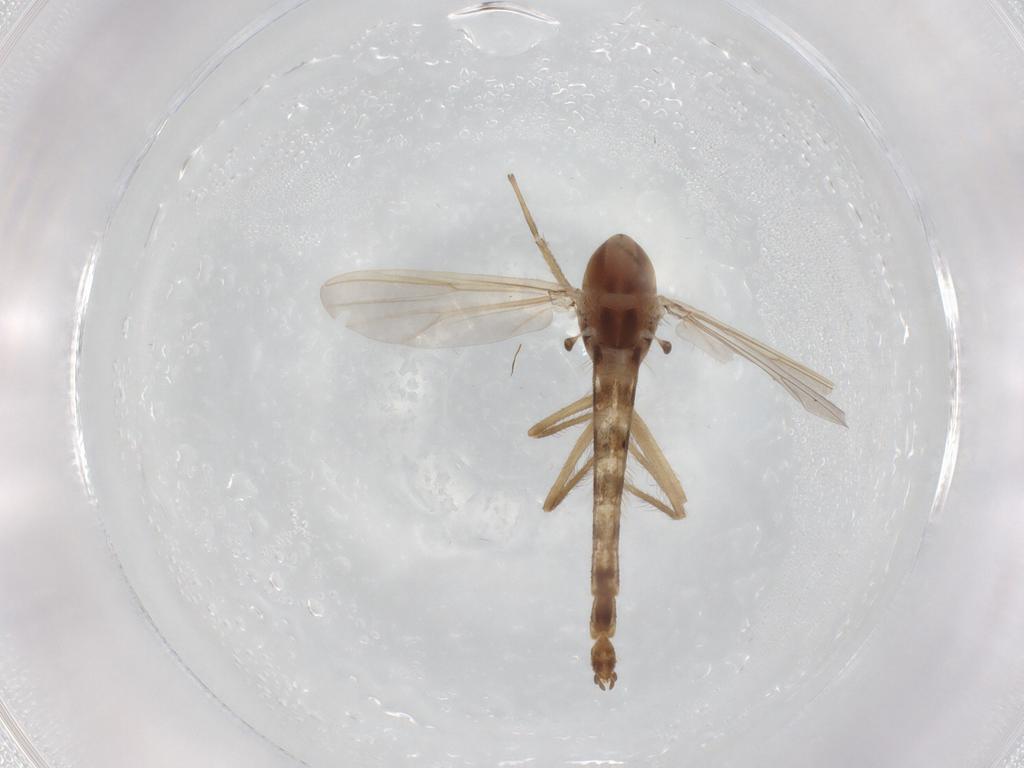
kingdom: Animalia
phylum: Arthropoda
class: Insecta
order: Diptera
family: Chironomidae
